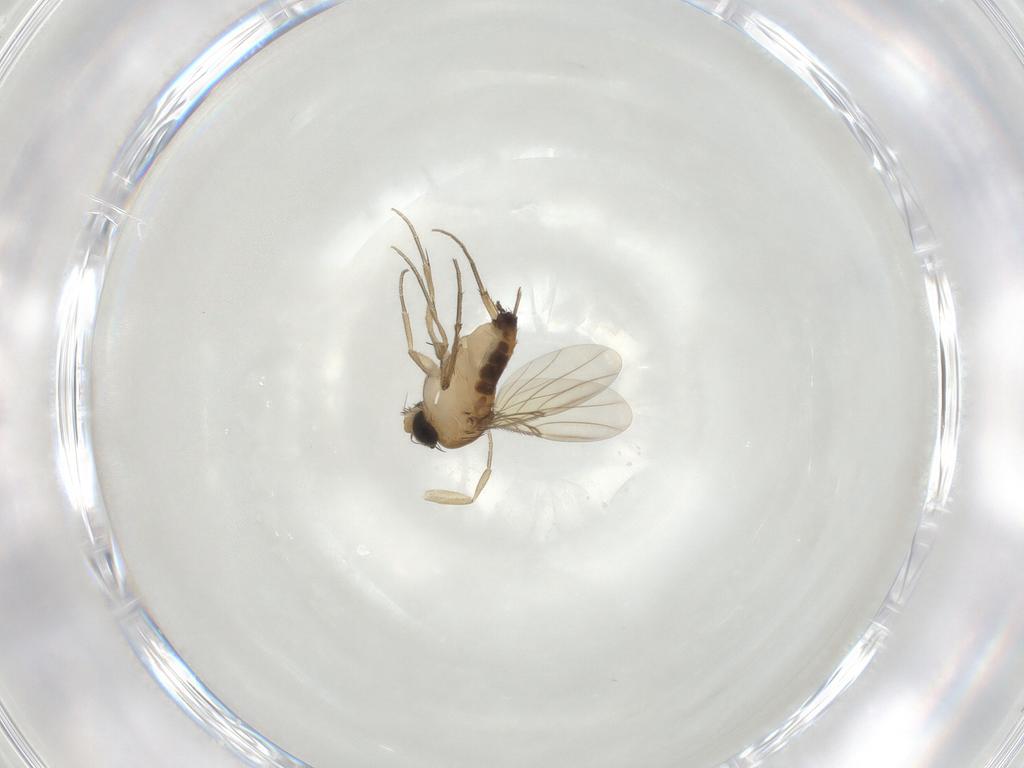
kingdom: Animalia
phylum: Arthropoda
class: Insecta
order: Diptera
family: Phoridae
